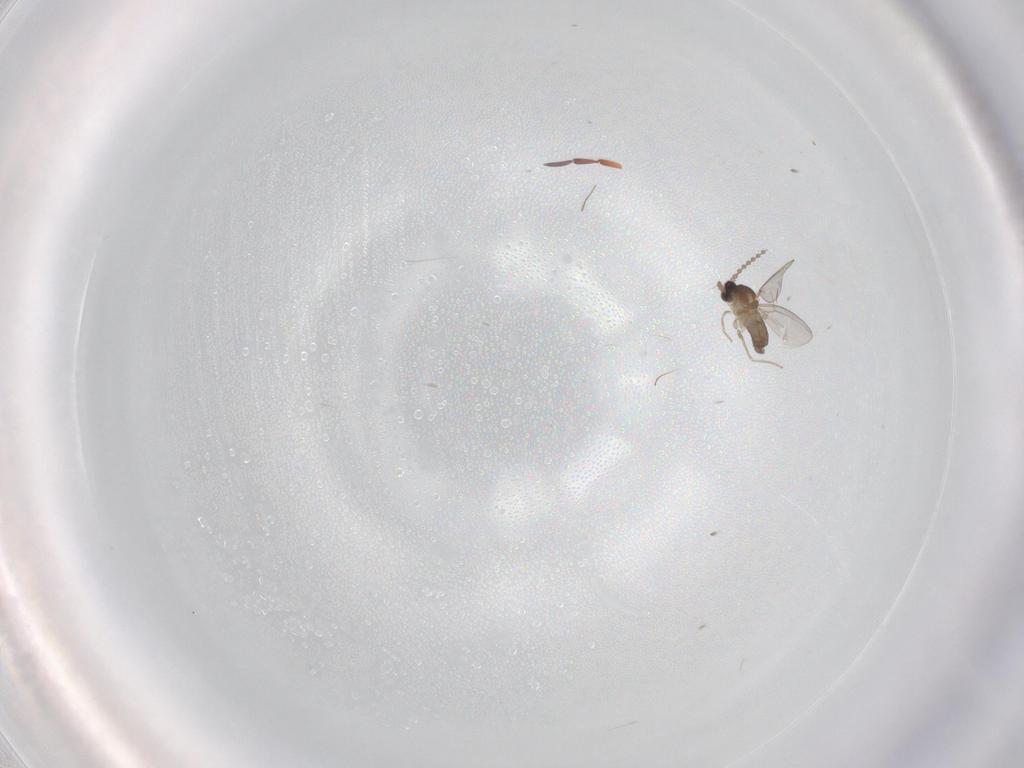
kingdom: Animalia
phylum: Arthropoda
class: Insecta
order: Diptera
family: Cecidomyiidae
